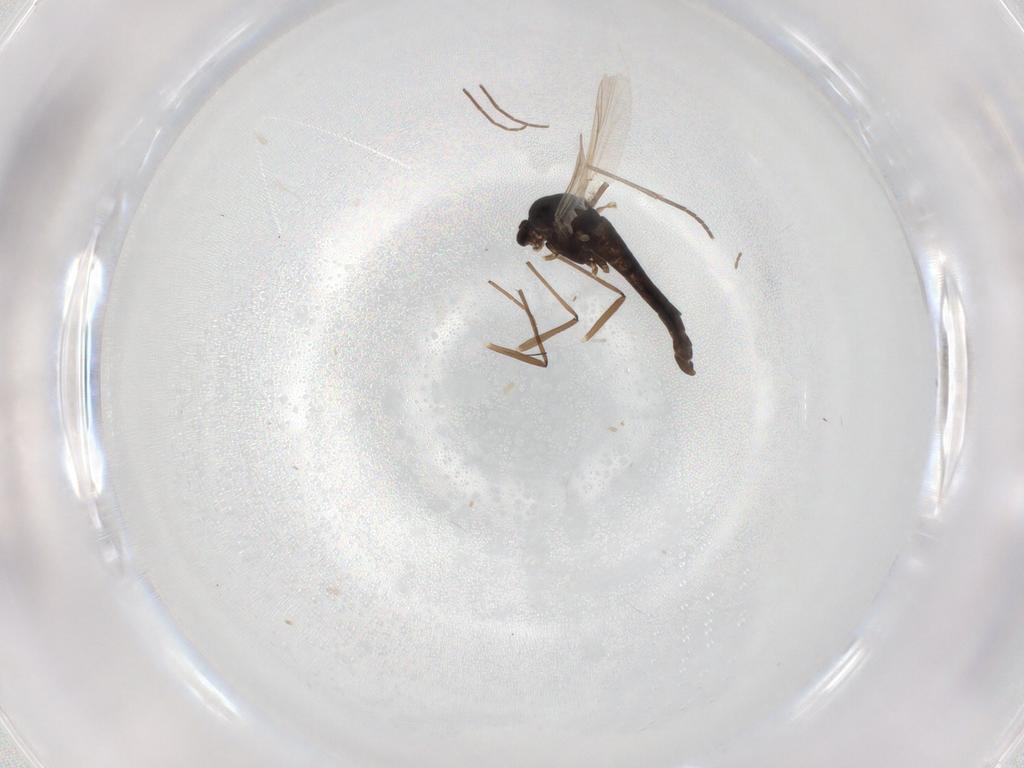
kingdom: Animalia
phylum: Arthropoda
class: Insecta
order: Diptera
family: Chironomidae
